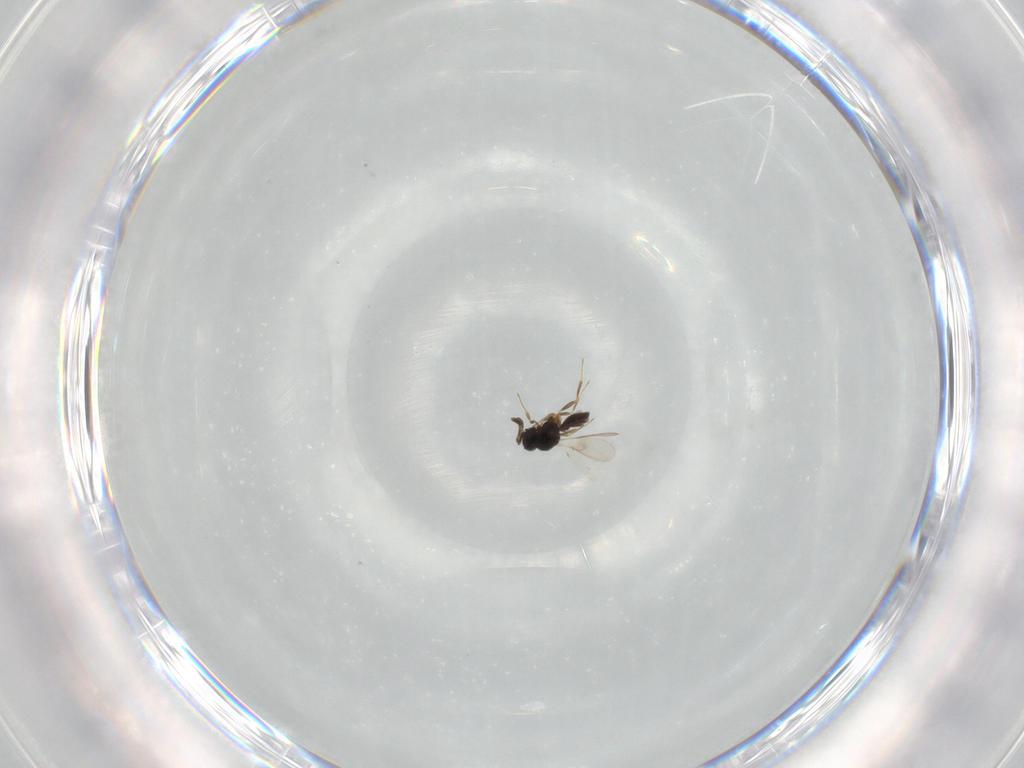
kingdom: Animalia
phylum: Arthropoda
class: Insecta
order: Hymenoptera
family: Scelionidae
